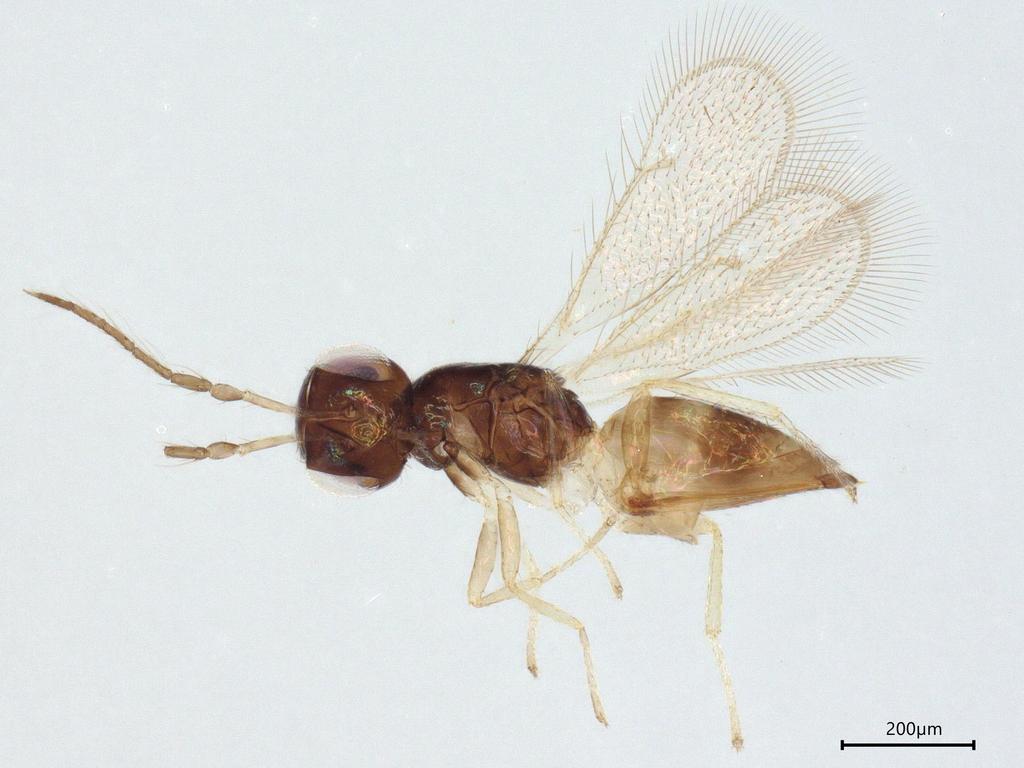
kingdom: Animalia
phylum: Arthropoda
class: Insecta
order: Hymenoptera
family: Eulophidae
